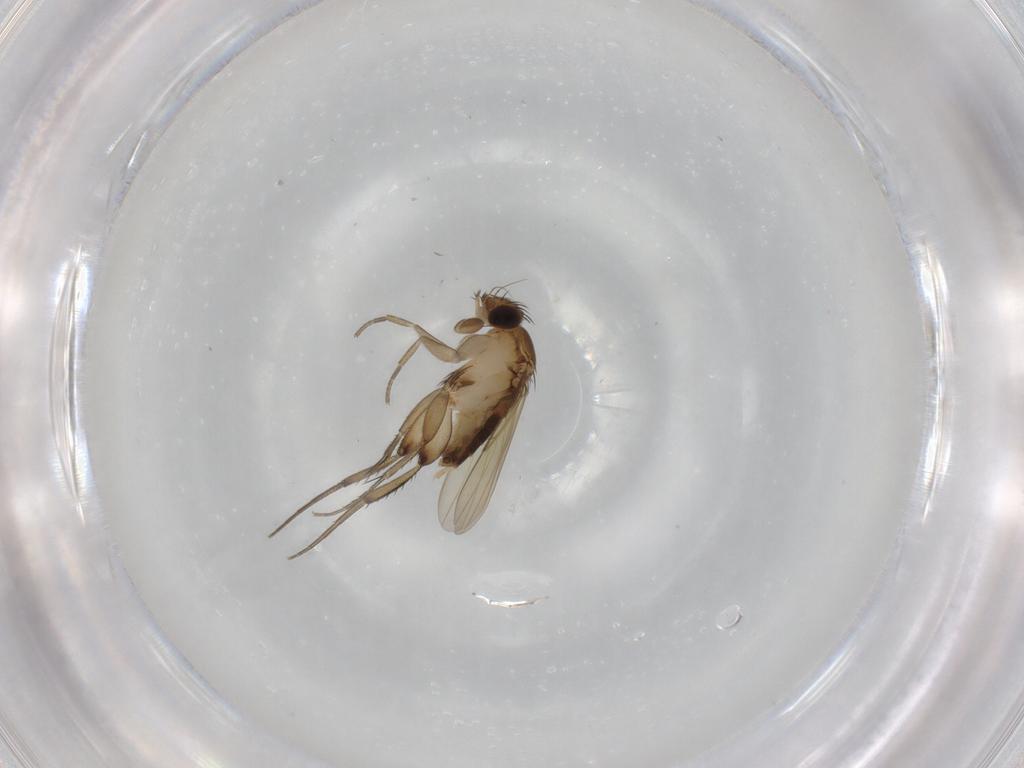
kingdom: Animalia
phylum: Arthropoda
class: Insecta
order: Diptera
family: Phoridae
